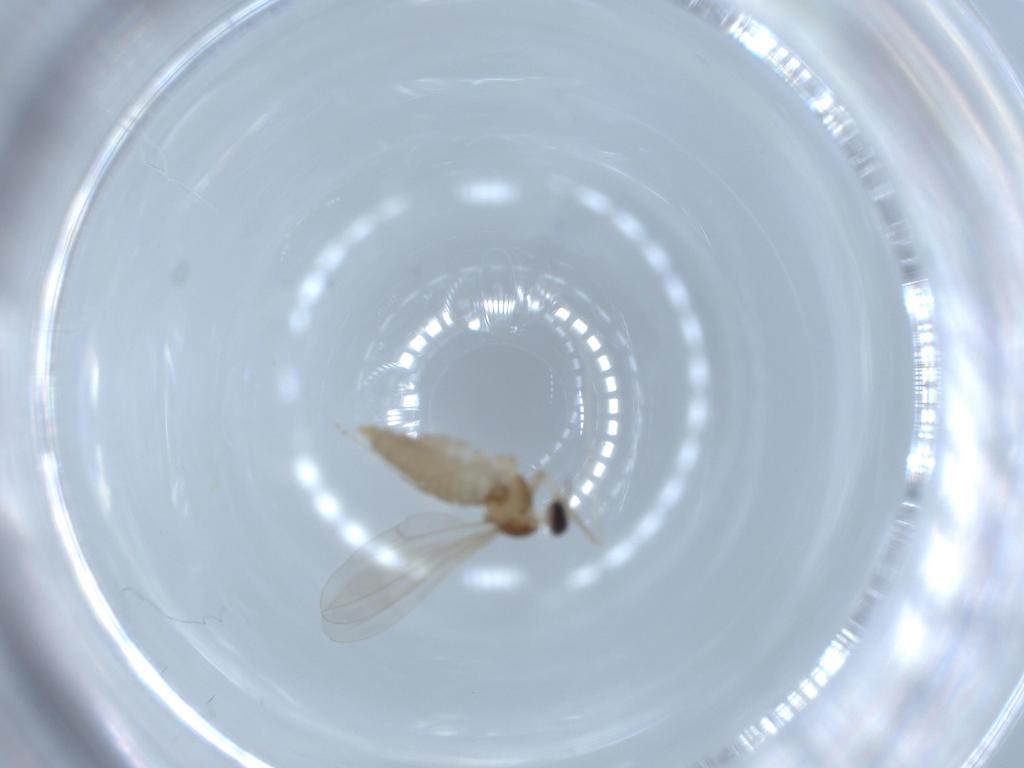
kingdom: Animalia
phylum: Arthropoda
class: Insecta
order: Diptera
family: Cecidomyiidae
